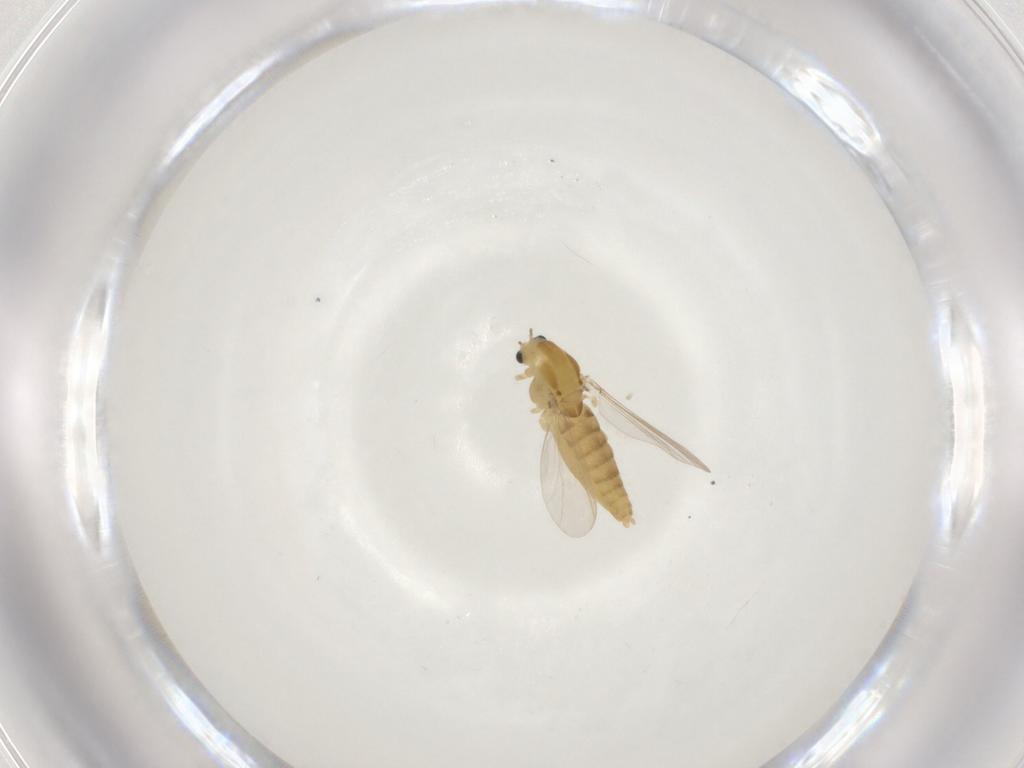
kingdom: Animalia
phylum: Arthropoda
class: Insecta
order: Diptera
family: Chironomidae
